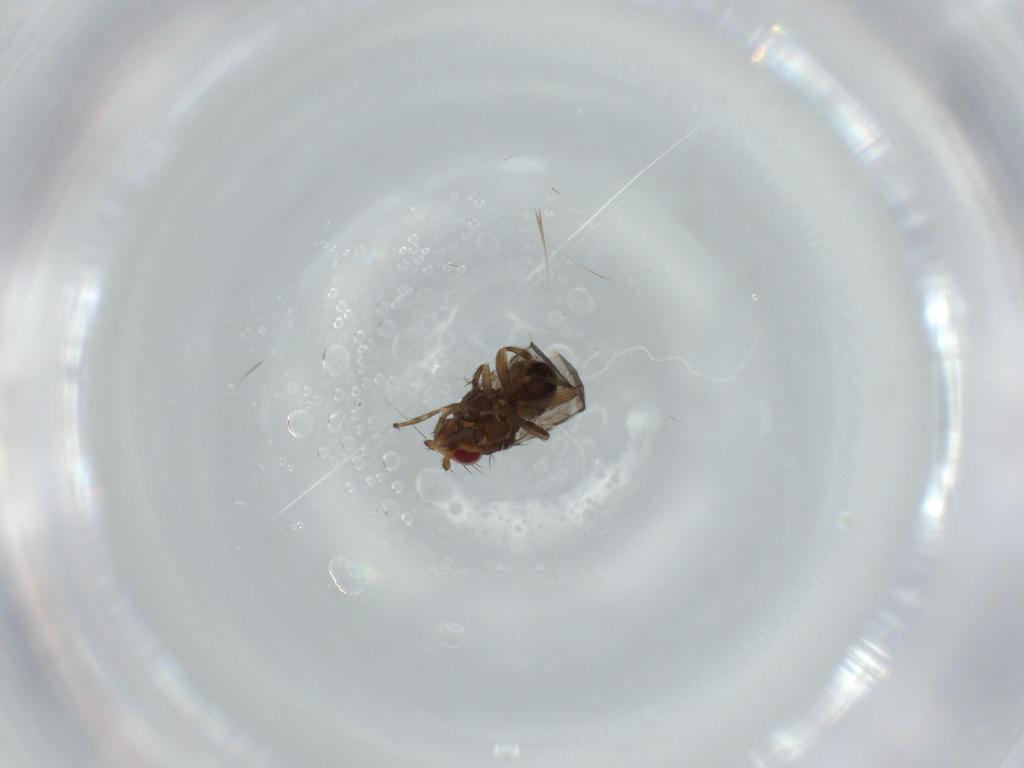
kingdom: Animalia
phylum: Arthropoda
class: Insecta
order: Diptera
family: Sphaeroceridae
